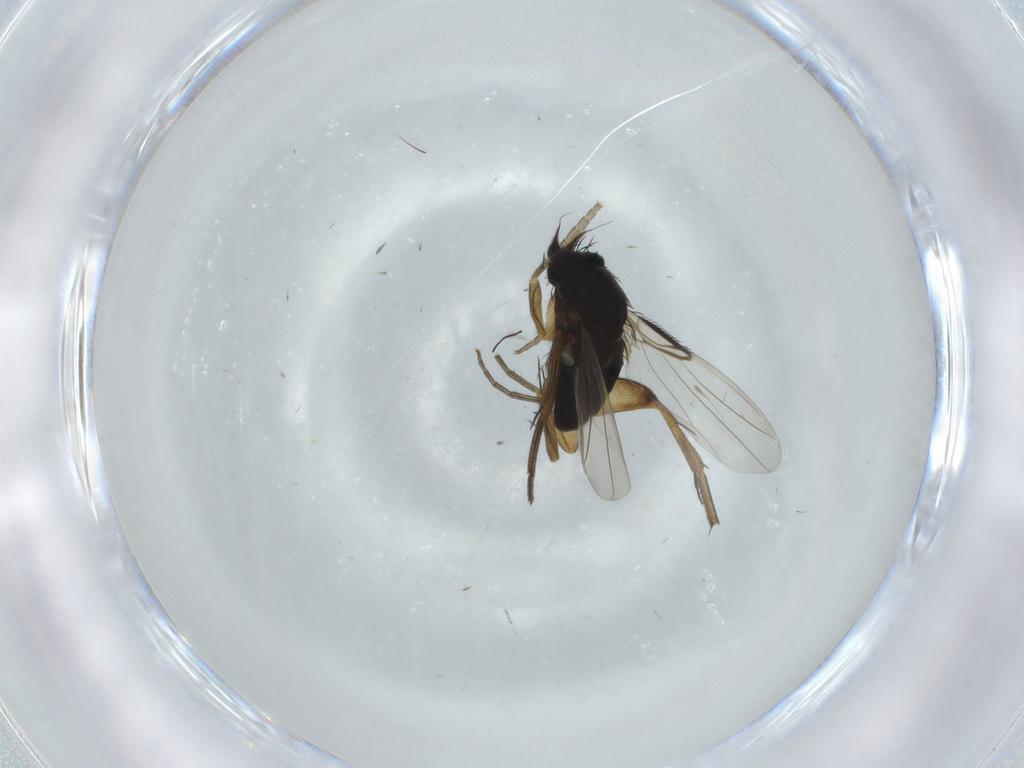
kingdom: Animalia
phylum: Arthropoda
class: Insecta
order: Diptera
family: Phoridae
